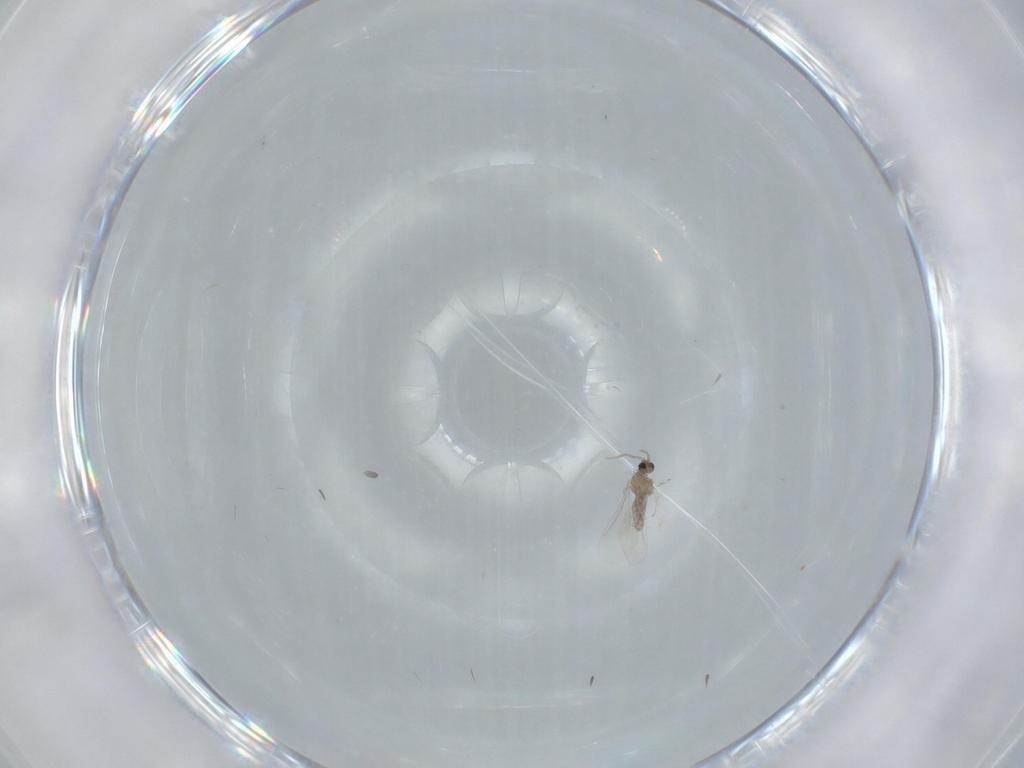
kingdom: Animalia
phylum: Arthropoda
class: Insecta
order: Diptera
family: Cecidomyiidae
